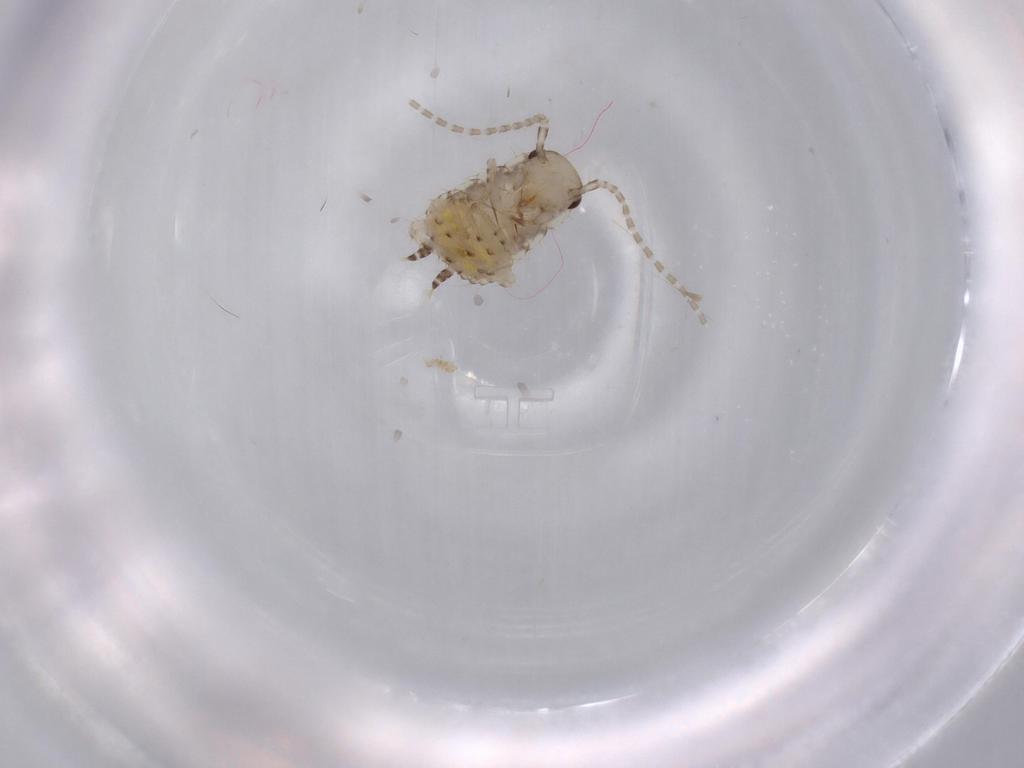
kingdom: Animalia
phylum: Arthropoda
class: Insecta
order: Blattodea
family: Ectobiidae
